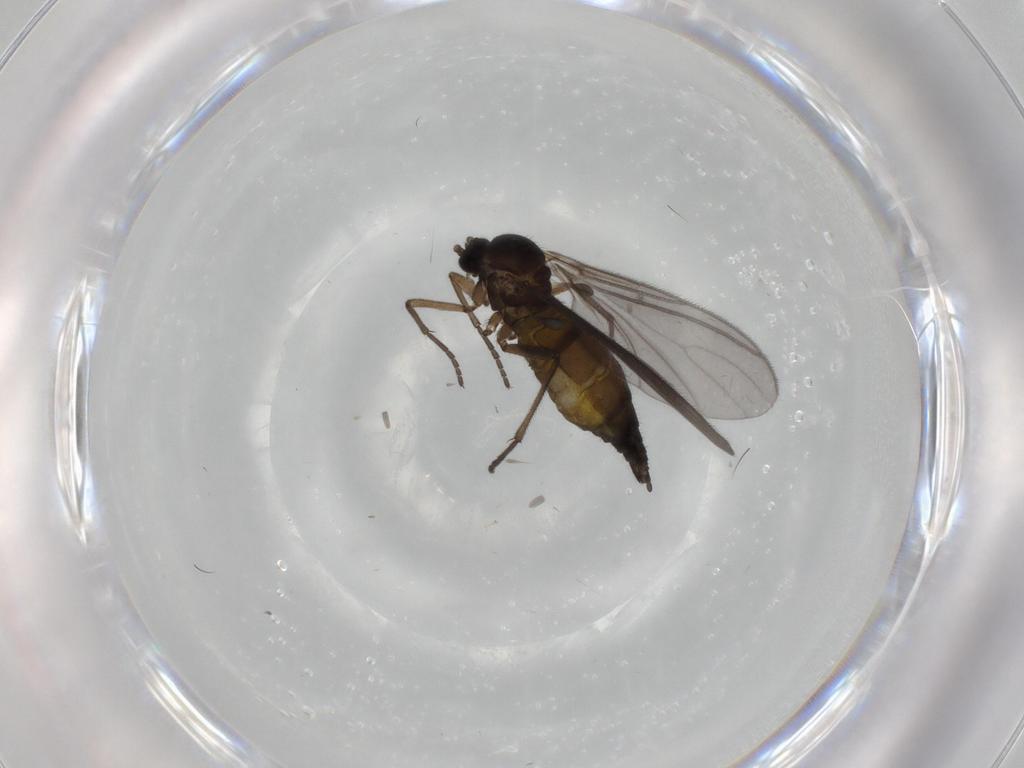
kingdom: Animalia
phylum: Arthropoda
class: Insecta
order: Diptera
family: Sciaridae
